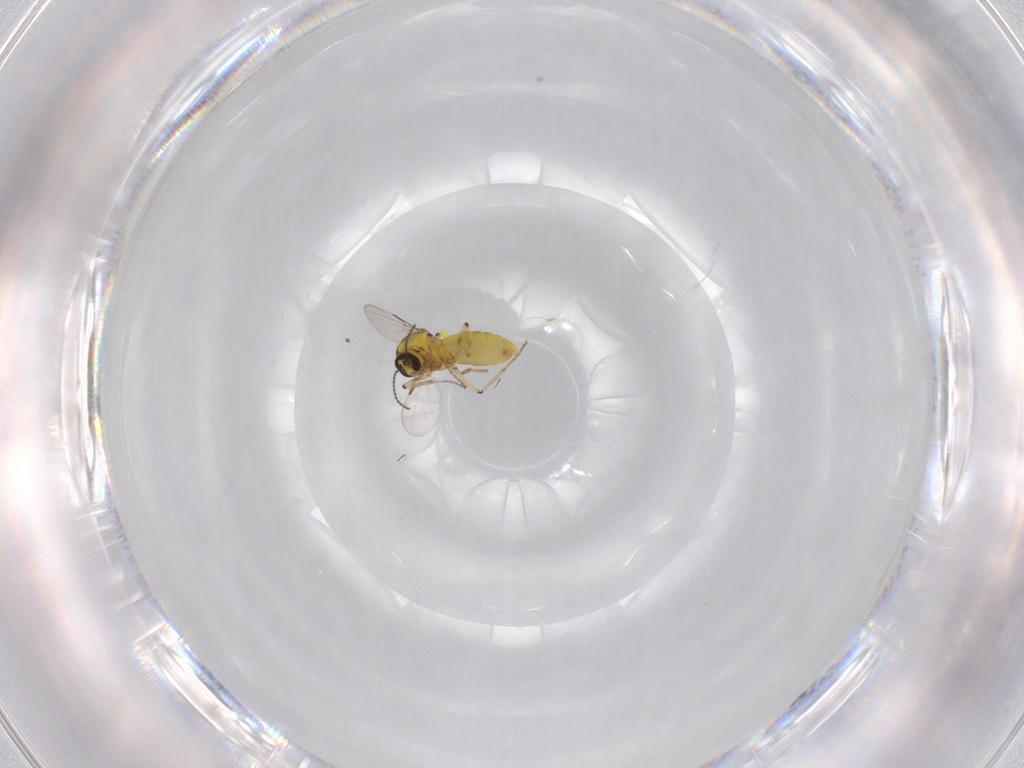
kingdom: Animalia
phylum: Arthropoda
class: Insecta
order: Diptera
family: Ceratopogonidae
